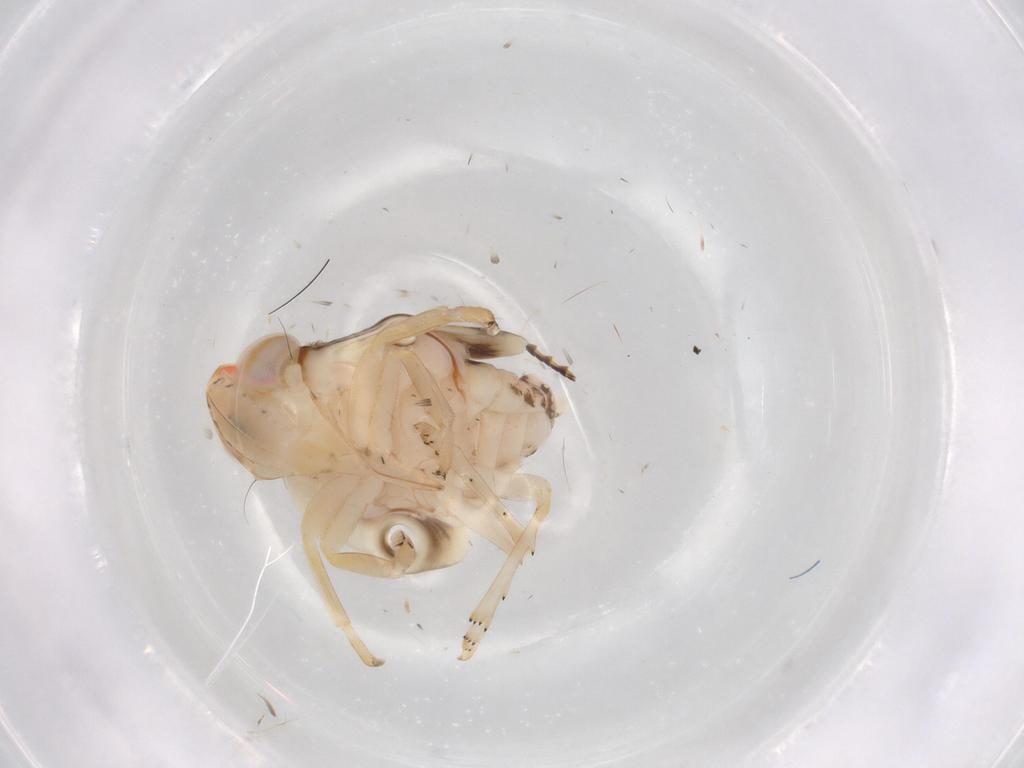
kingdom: Animalia
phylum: Arthropoda
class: Insecta
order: Hemiptera
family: Nogodinidae
